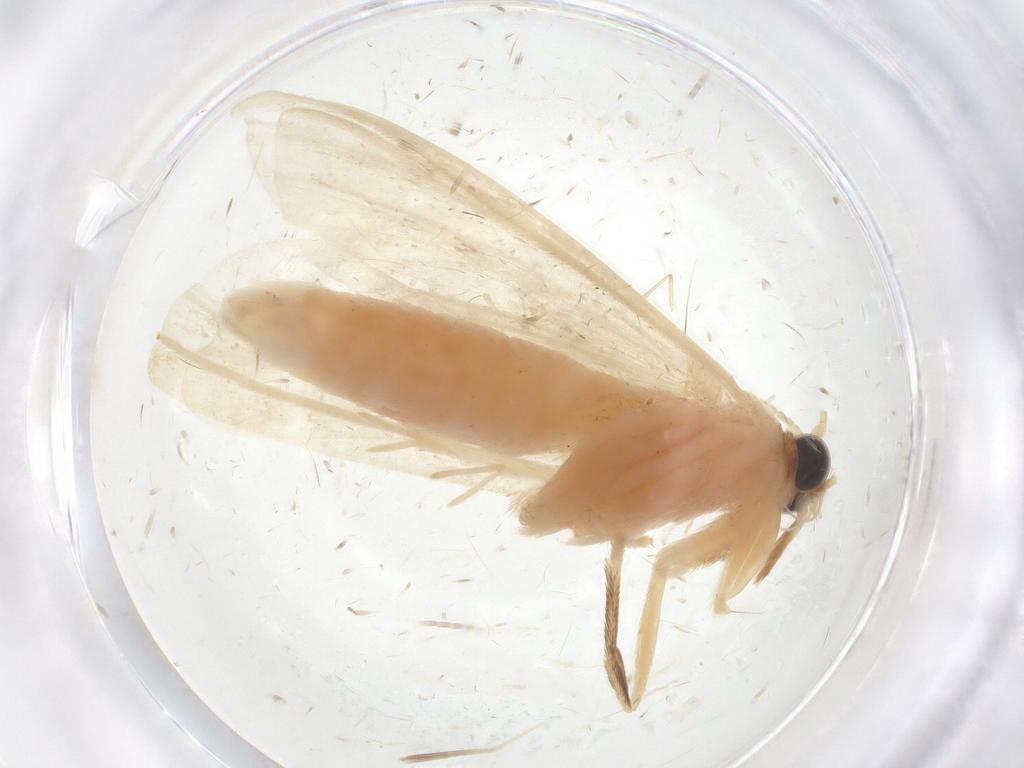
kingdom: Animalia
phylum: Arthropoda
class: Insecta
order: Lepidoptera
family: Crambidae
